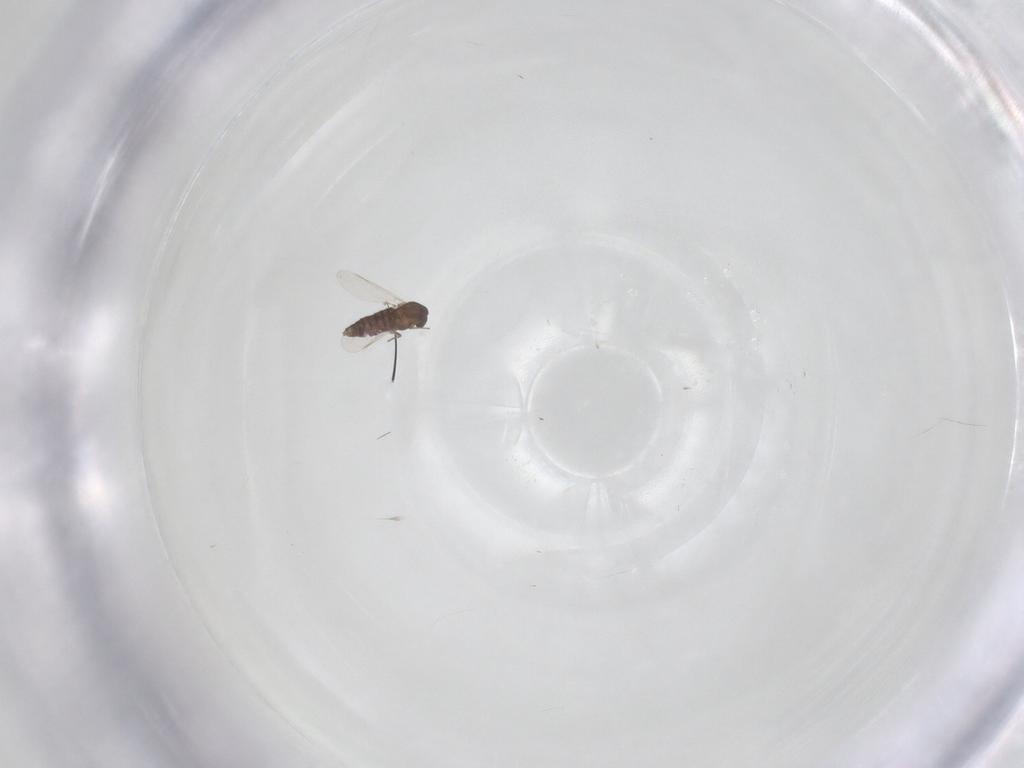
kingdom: Animalia
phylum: Arthropoda
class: Insecta
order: Diptera
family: Chironomidae
